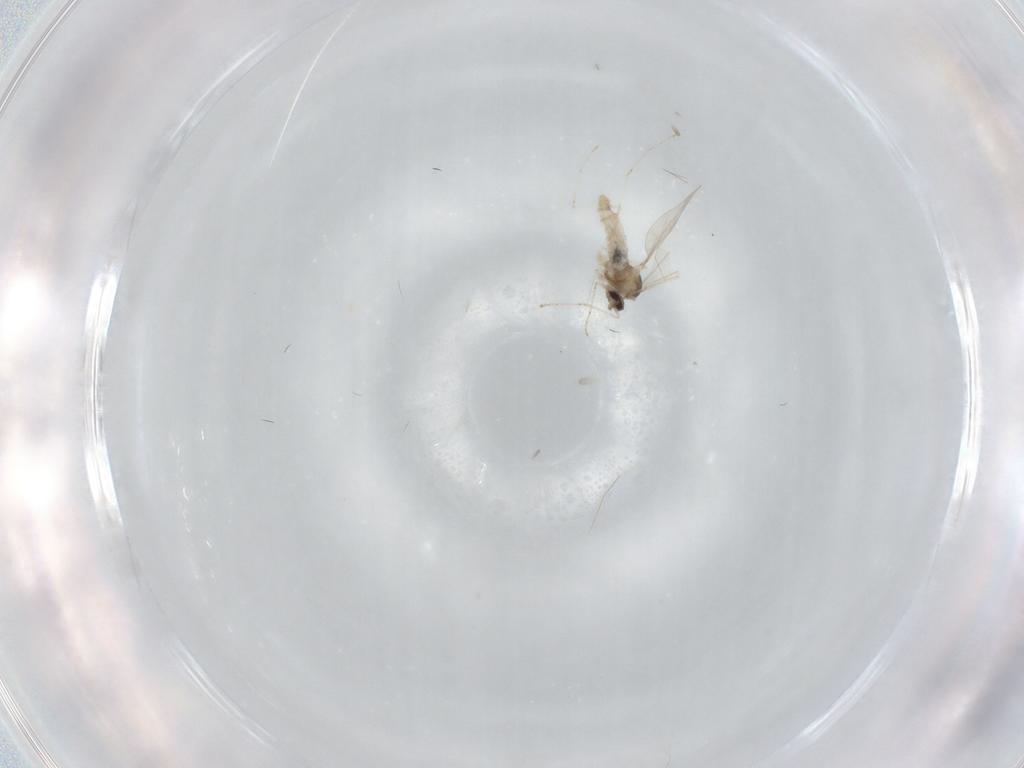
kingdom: Animalia
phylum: Arthropoda
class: Insecta
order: Diptera
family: Cecidomyiidae
